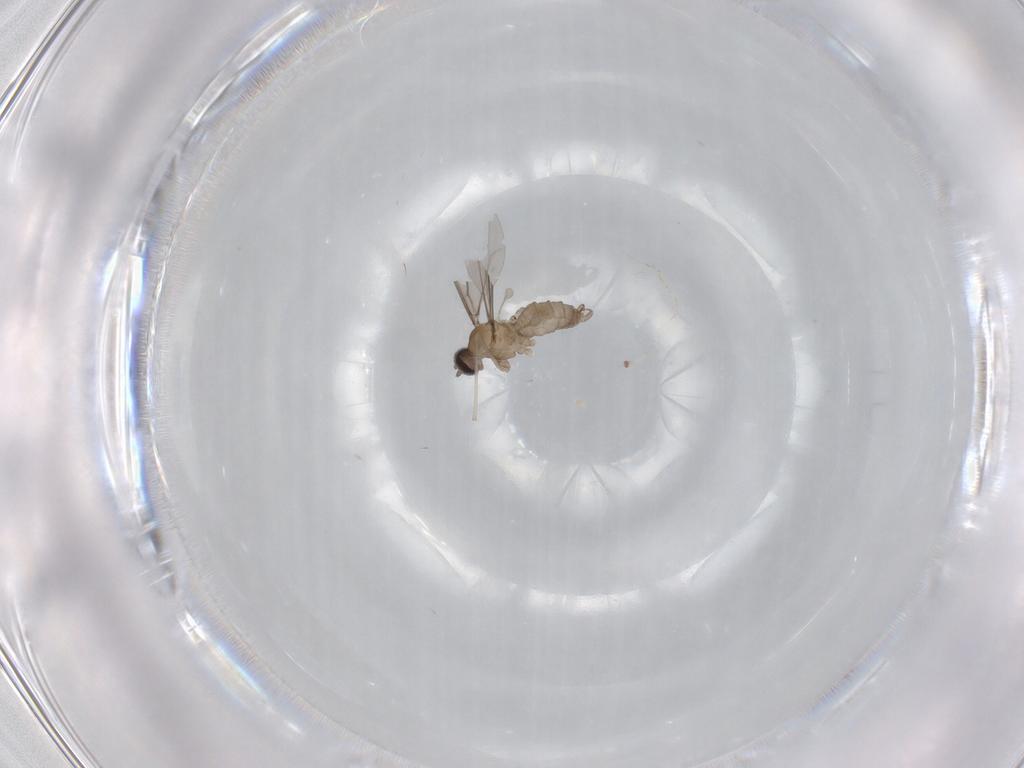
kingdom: Animalia
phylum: Arthropoda
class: Insecta
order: Diptera
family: Cecidomyiidae
